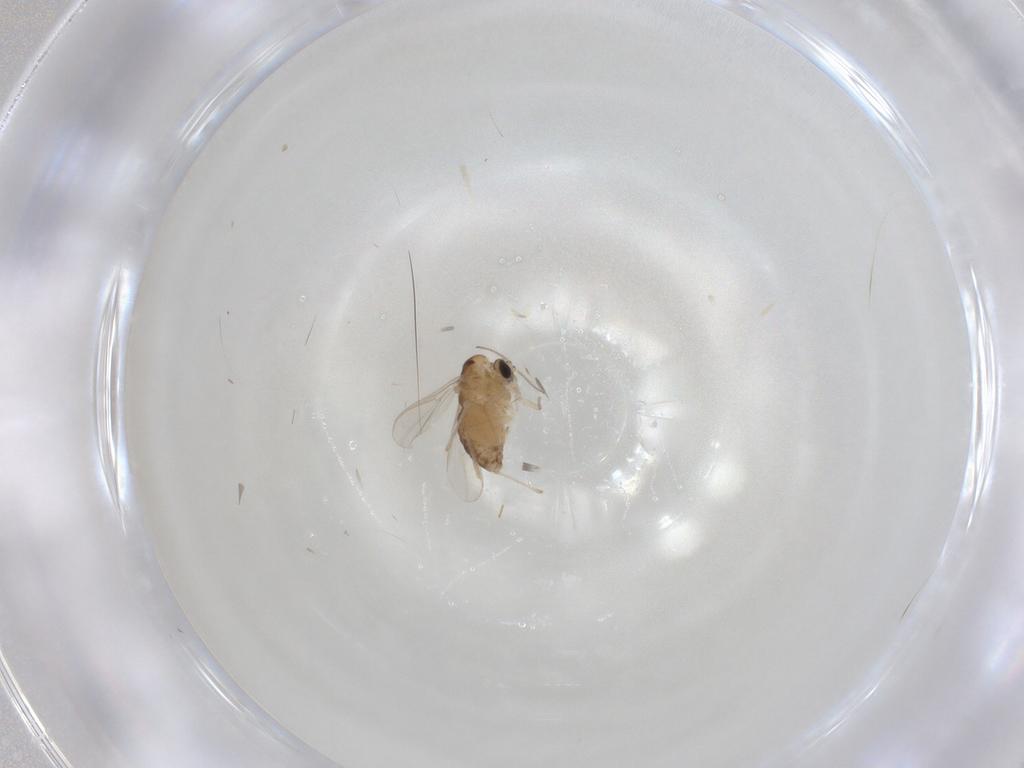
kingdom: Animalia
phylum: Arthropoda
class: Insecta
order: Diptera
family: Chironomidae
